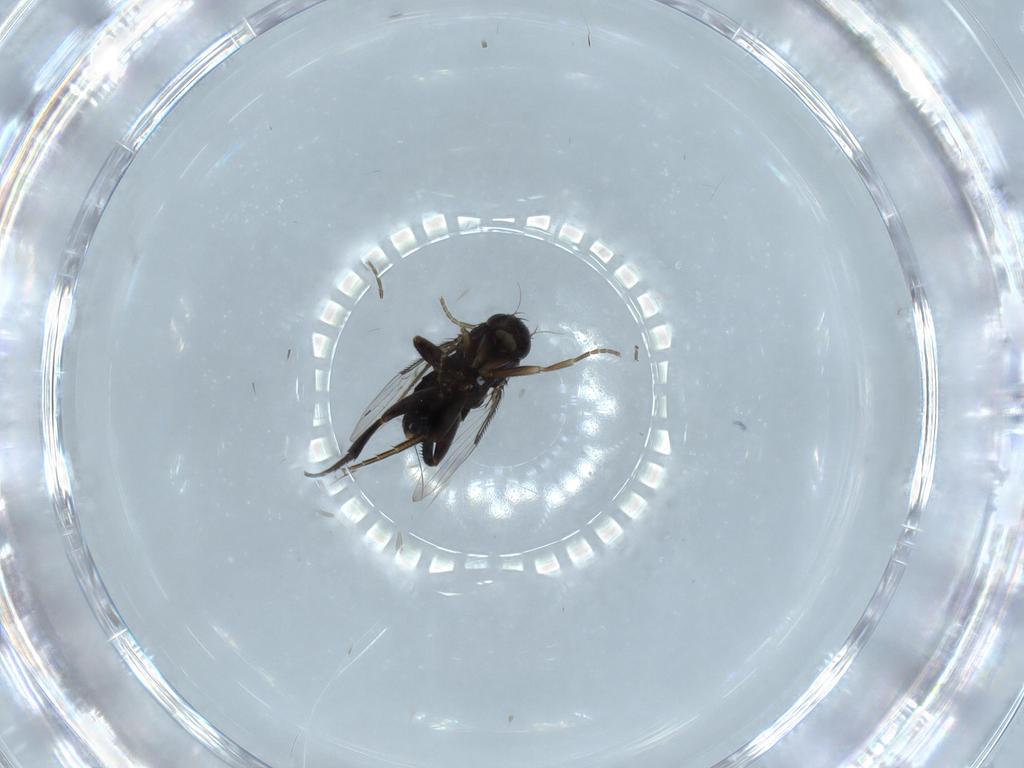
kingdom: Animalia
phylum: Arthropoda
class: Insecta
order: Diptera
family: Phoridae
